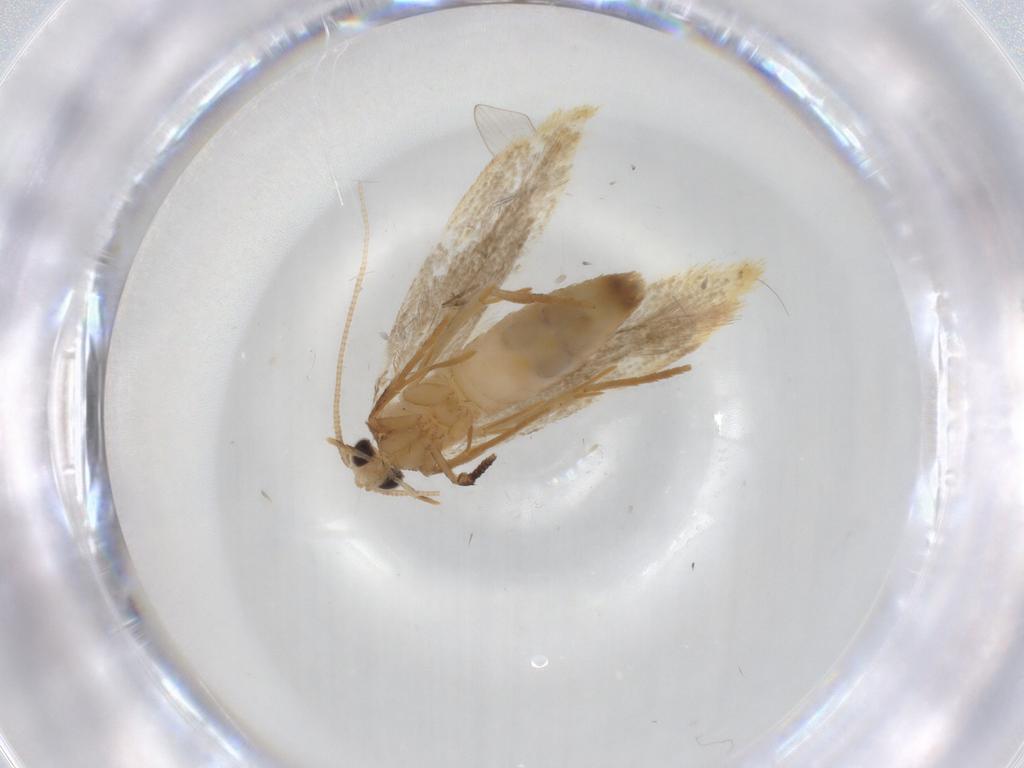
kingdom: Animalia
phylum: Arthropoda
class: Insecta
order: Lepidoptera
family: Tineidae
